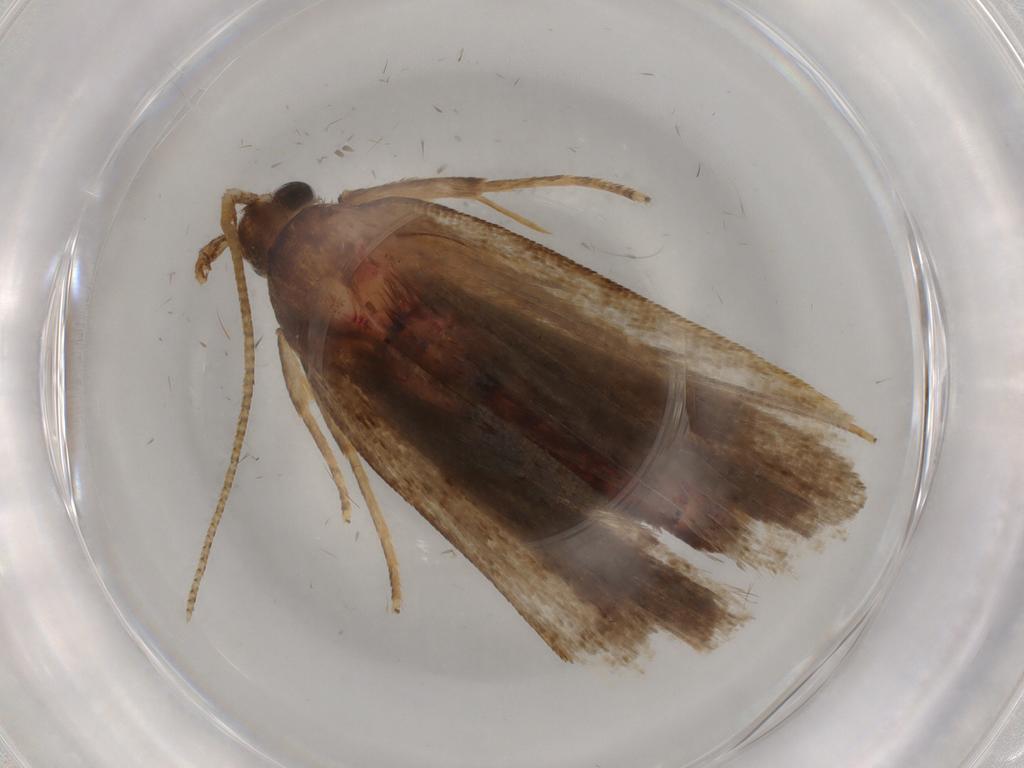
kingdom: Animalia
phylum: Arthropoda
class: Insecta
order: Lepidoptera
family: Autostichidae
